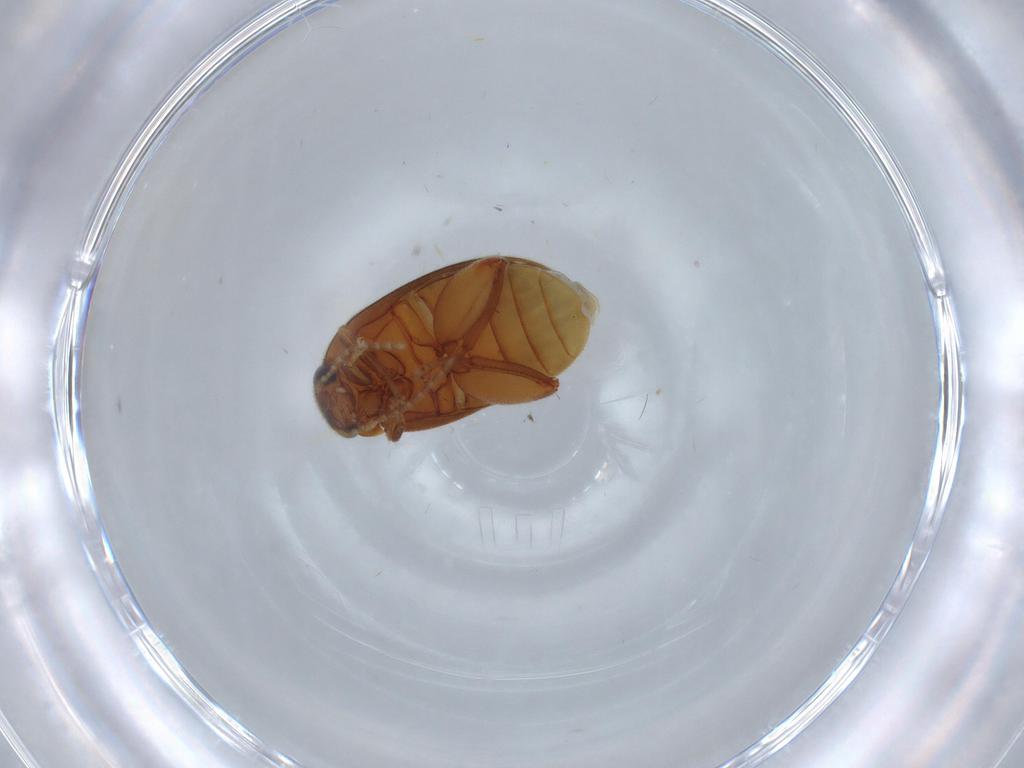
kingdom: Animalia
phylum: Arthropoda
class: Insecta
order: Coleoptera
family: Scirtidae
